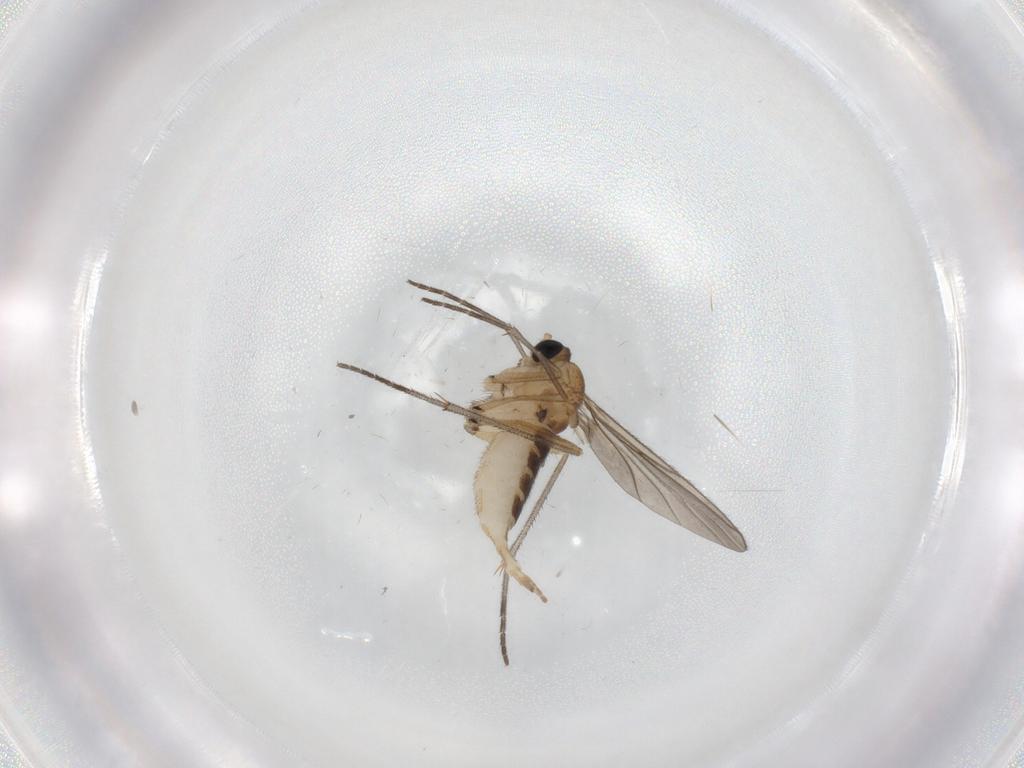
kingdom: Animalia
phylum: Arthropoda
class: Insecta
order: Diptera
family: Sciaridae
